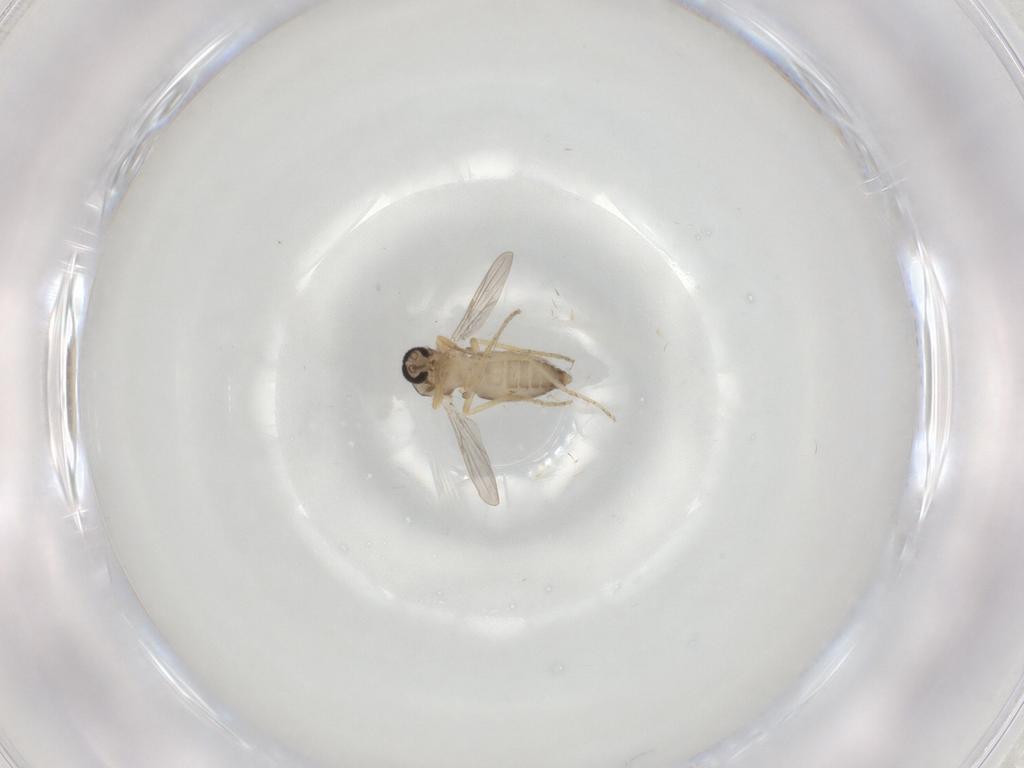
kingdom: Animalia
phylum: Arthropoda
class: Insecta
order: Diptera
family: Ceratopogonidae
